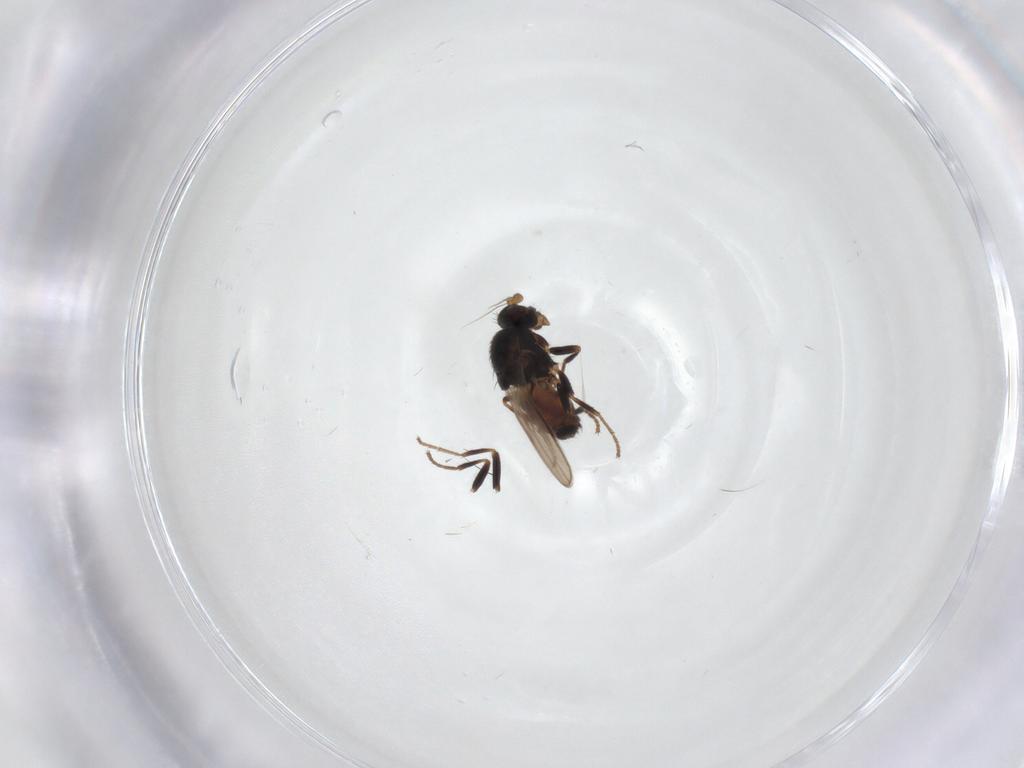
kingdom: Animalia
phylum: Arthropoda
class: Insecta
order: Diptera
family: Sphaeroceridae
